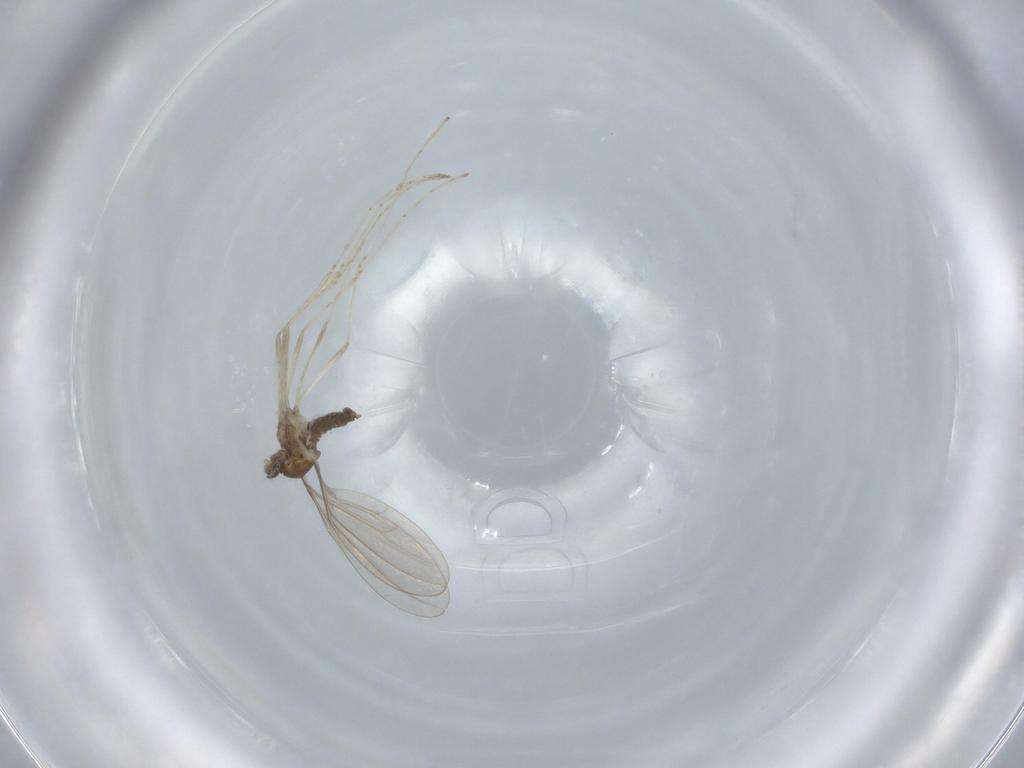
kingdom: Animalia
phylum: Arthropoda
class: Insecta
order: Diptera
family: Cecidomyiidae
